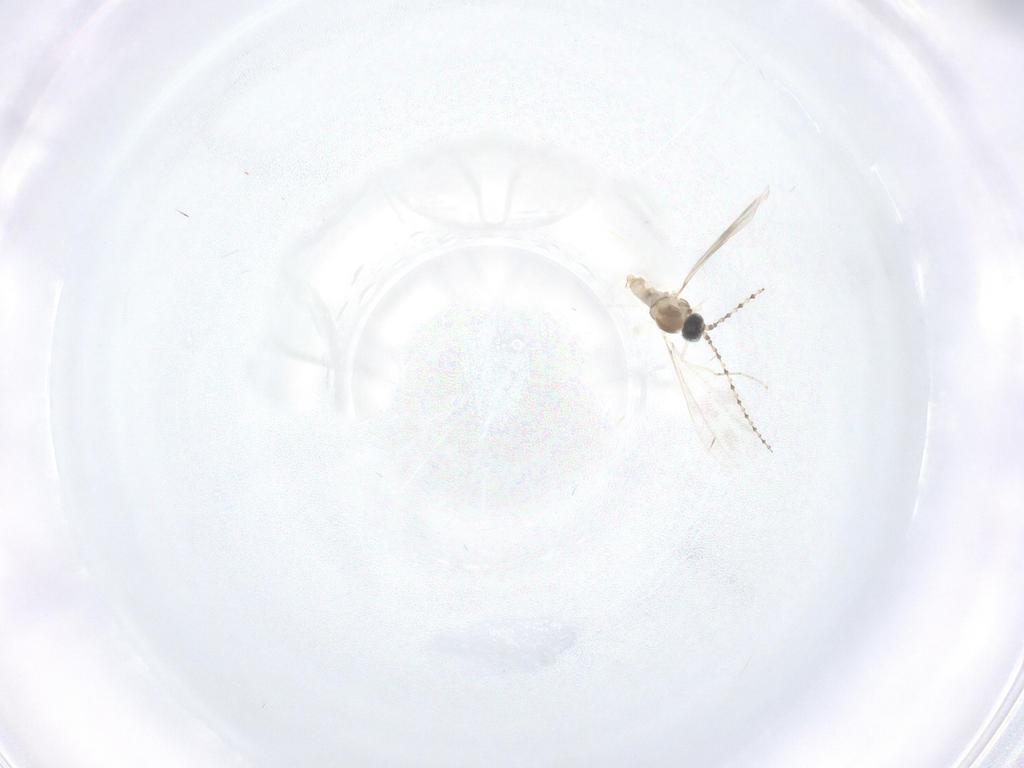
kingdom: Animalia
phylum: Arthropoda
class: Insecta
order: Diptera
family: Cecidomyiidae
